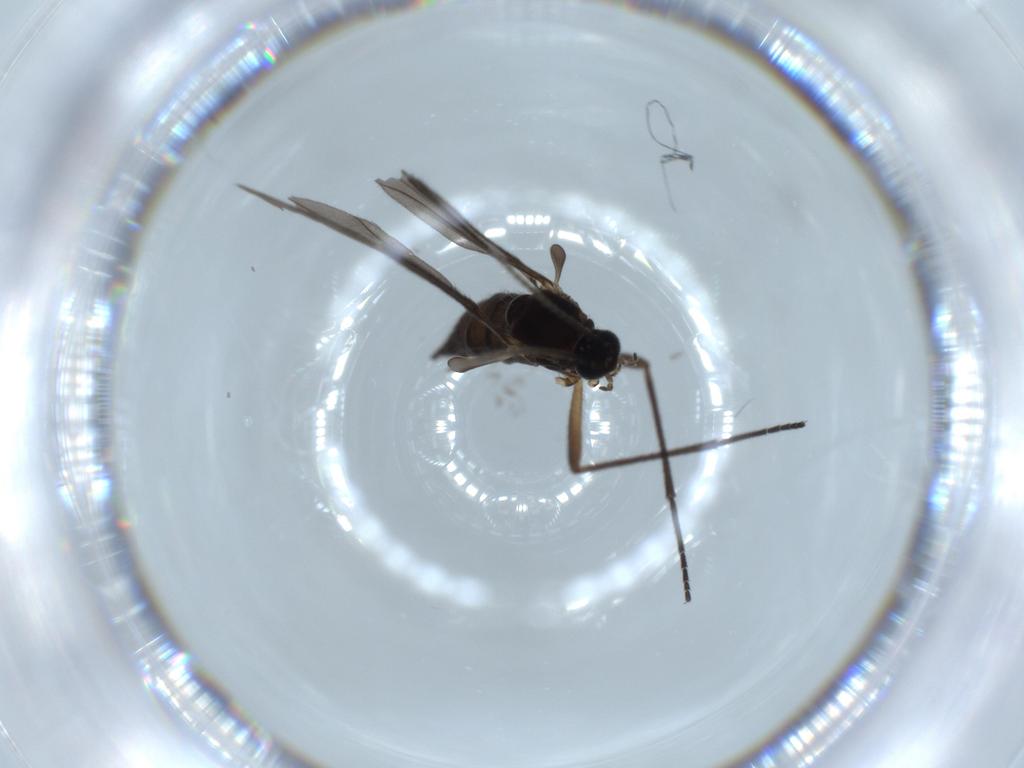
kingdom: Animalia
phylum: Arthropoda
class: Insecta
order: Diptera
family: Sciaridae
